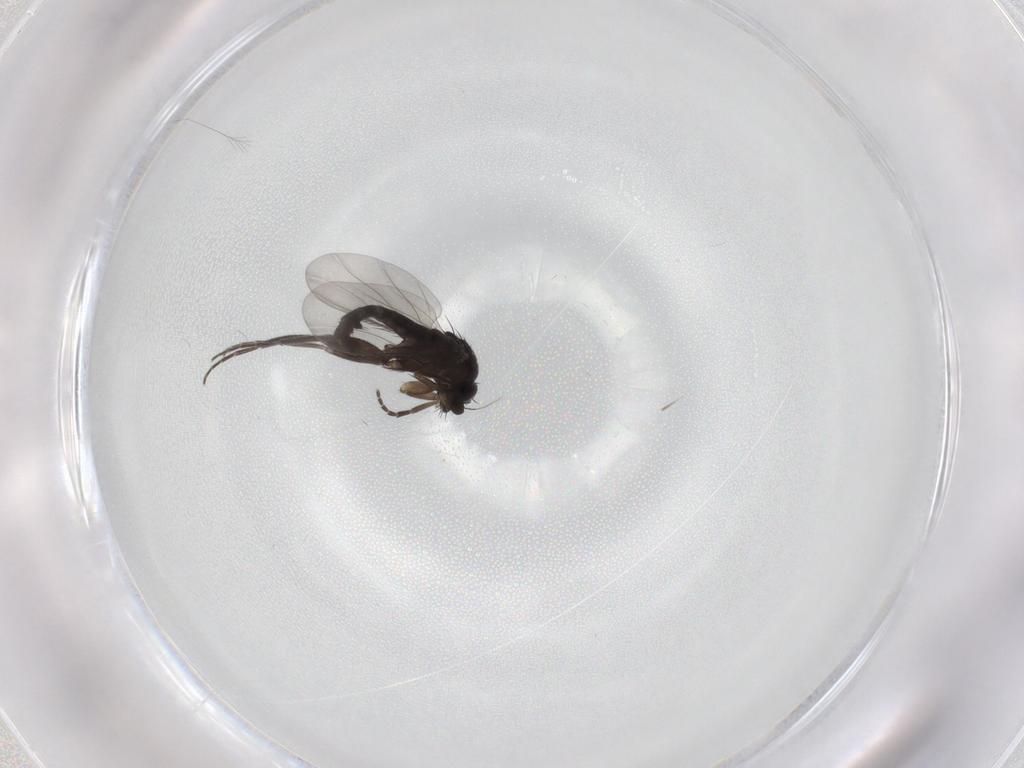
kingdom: Animalia
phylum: Arthropoda
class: Insecta
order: Diptera
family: Phoridae
